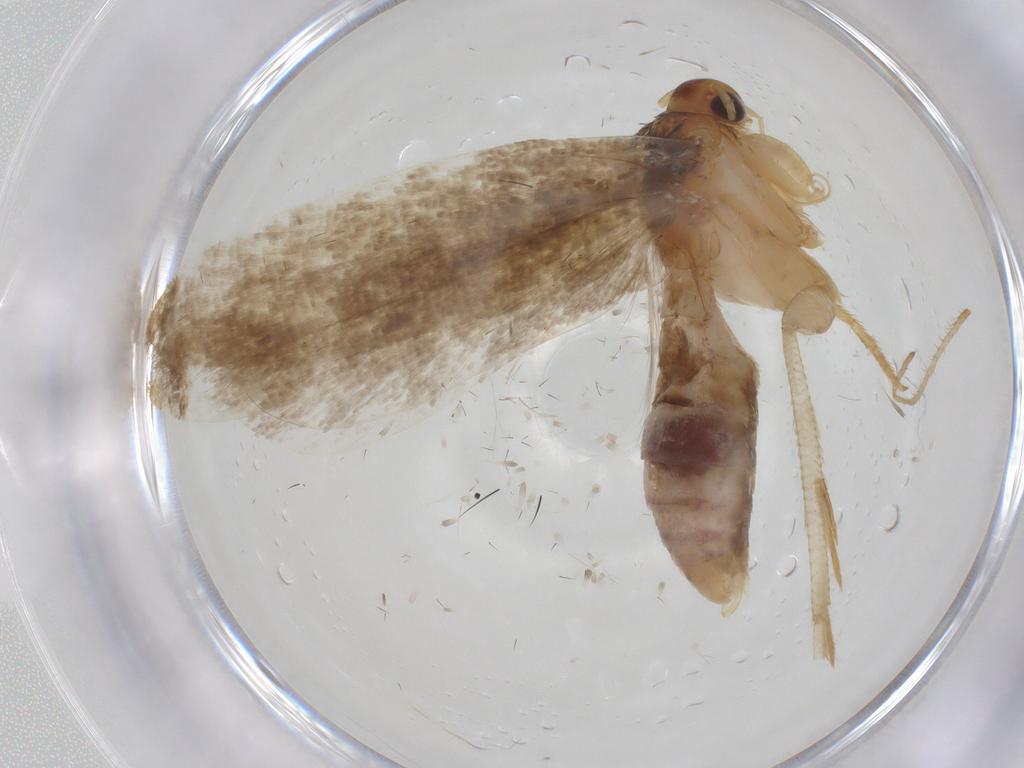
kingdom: Animalia
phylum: Arthropoda
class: Insecta
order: Lepidoptera
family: Gelechiidae
